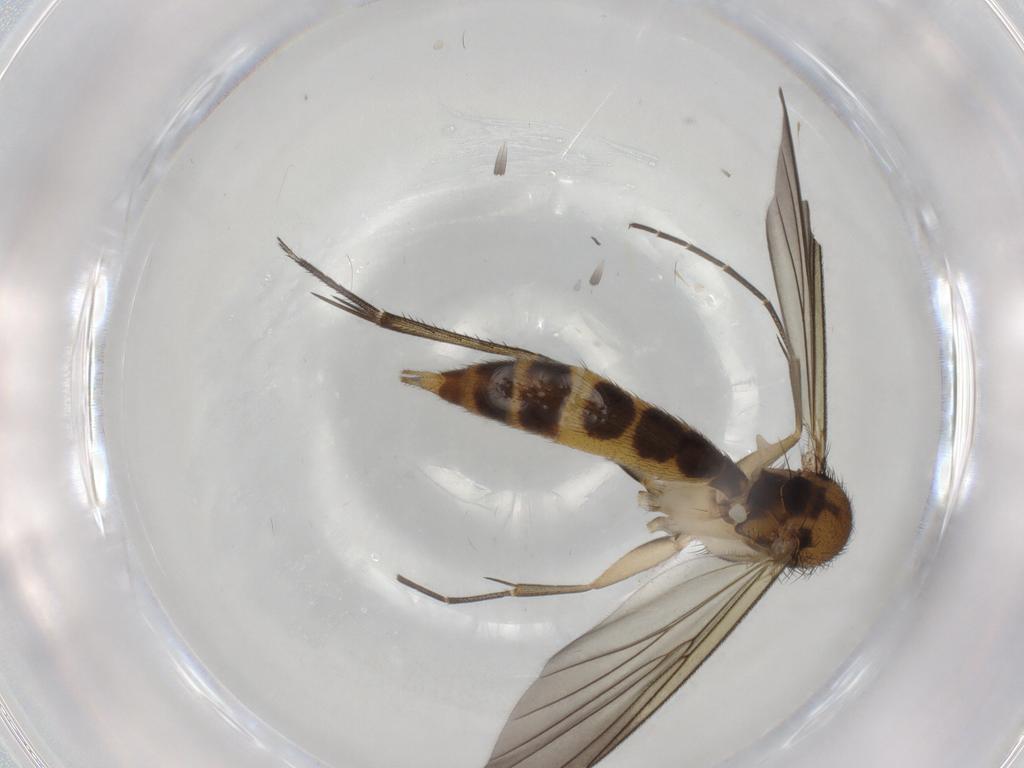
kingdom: Animalia
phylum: Arthropoda
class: Insecta
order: Diptera
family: Mycetophilidae
